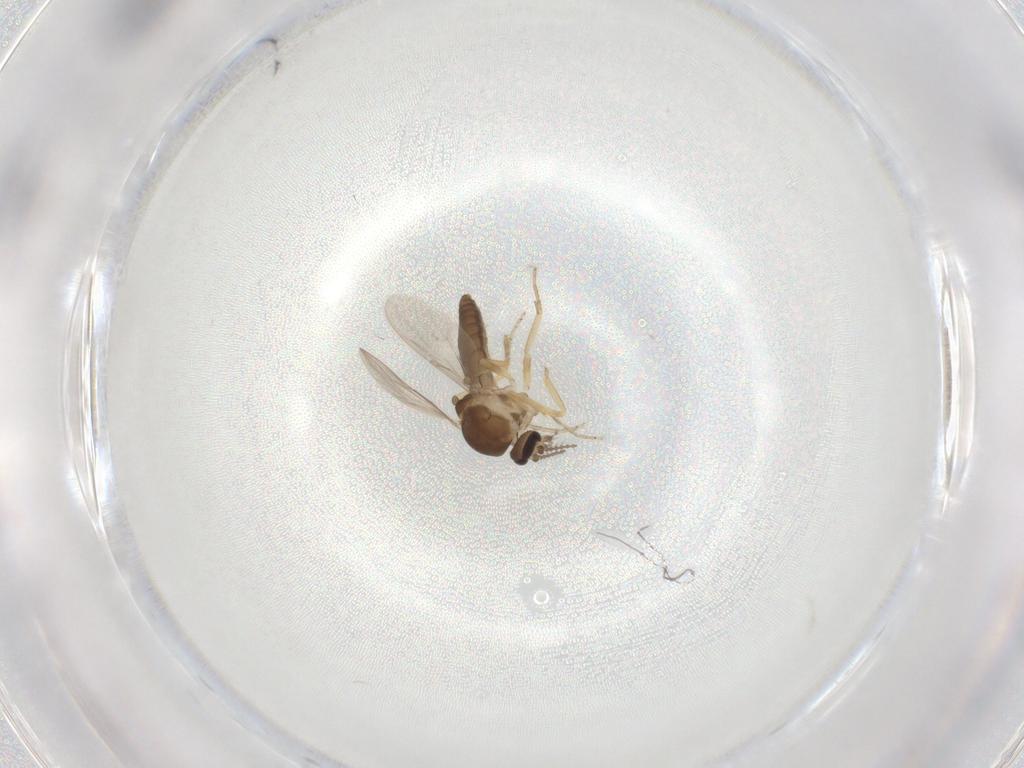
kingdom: Animalia
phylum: Arthropoda
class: Insecta
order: Diptera
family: Ceratopogonidae
